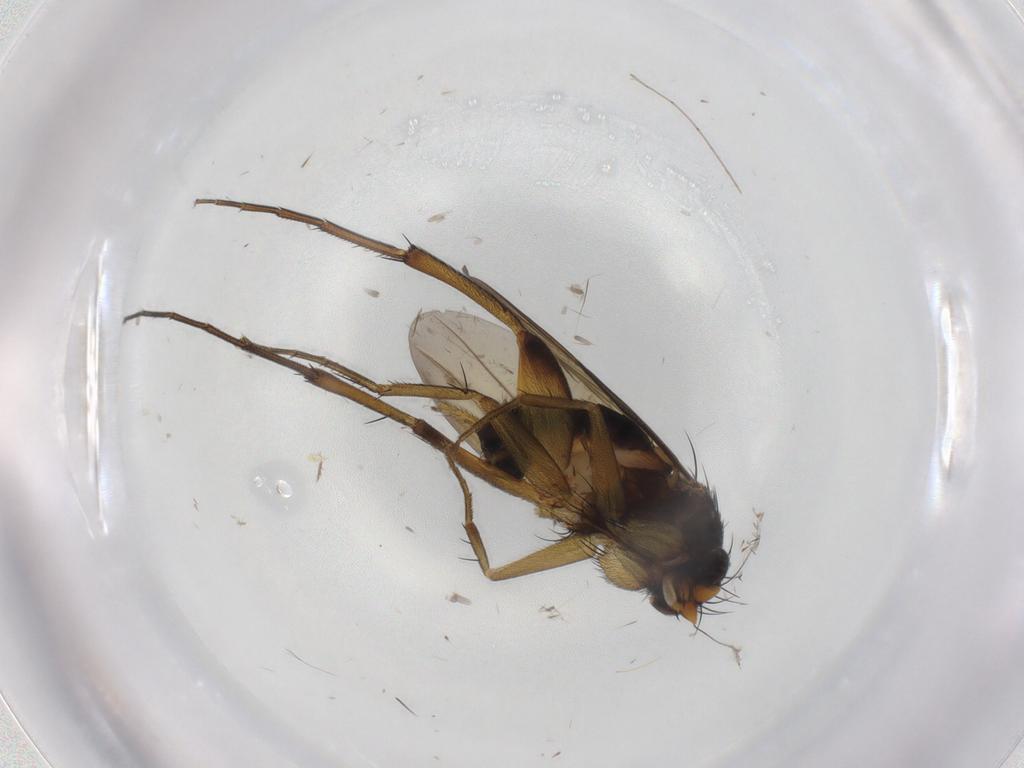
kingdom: Animalia
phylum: Arthropoda
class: Insecta
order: Diptera
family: Phoridae
